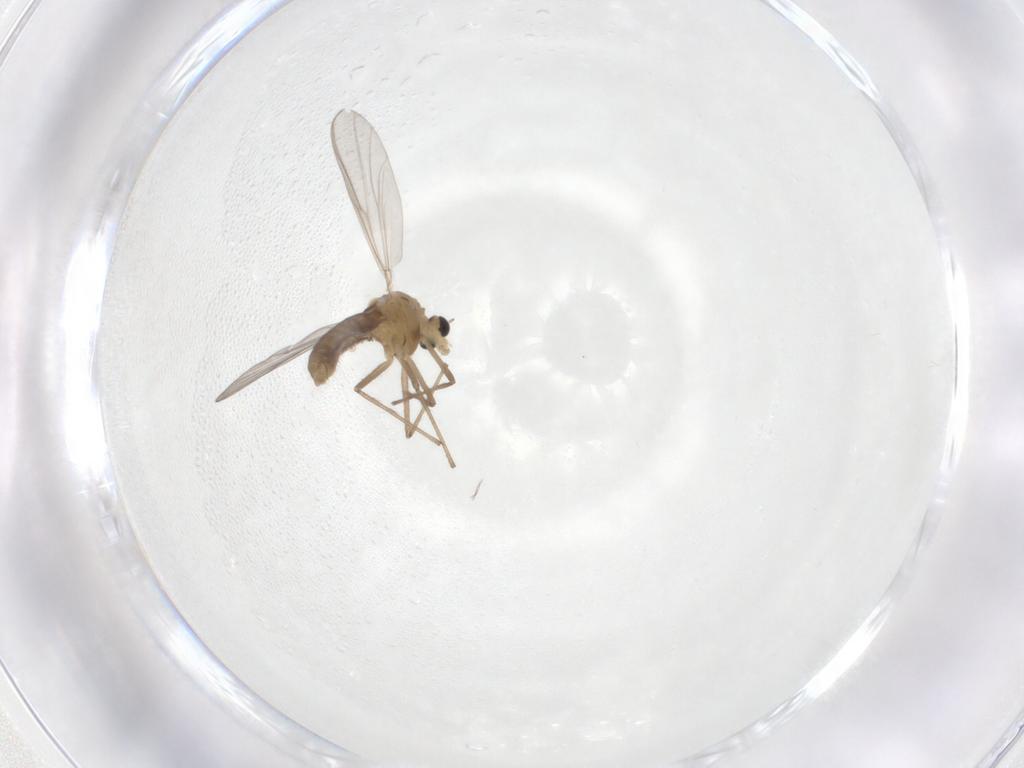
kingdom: Animalia
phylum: Arthropoda
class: Insecta
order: Diptera
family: Chironomidae
